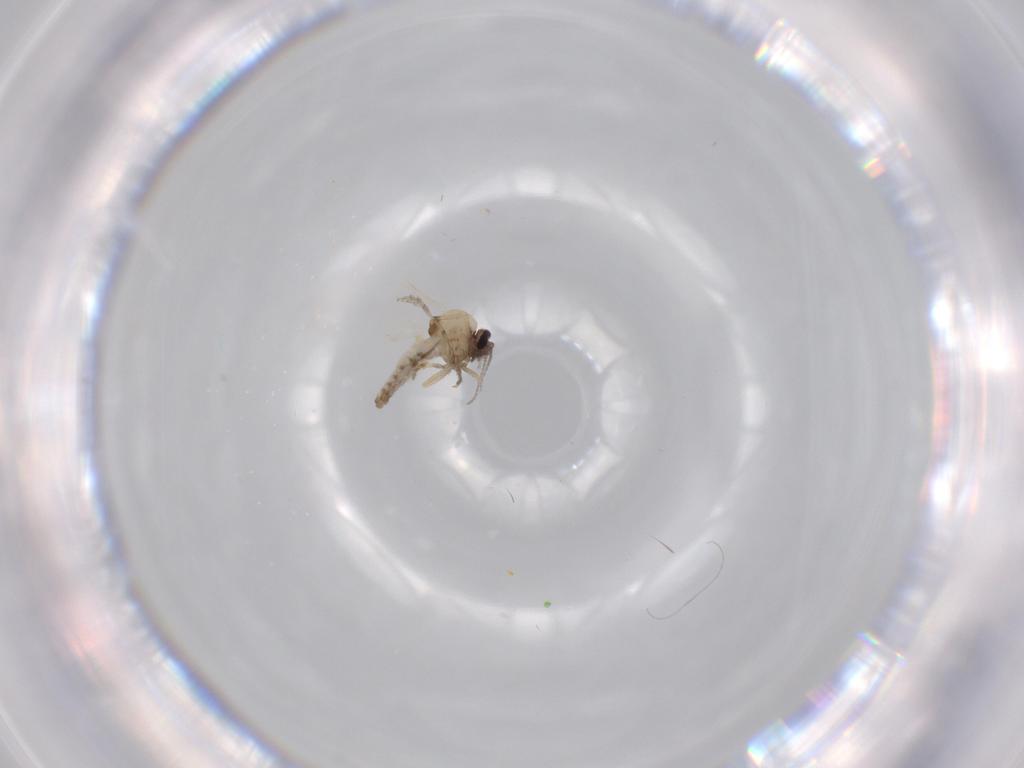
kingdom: Animalia
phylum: Arthropoda
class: Insecta
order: Diptera
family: Ceratopogonidae
